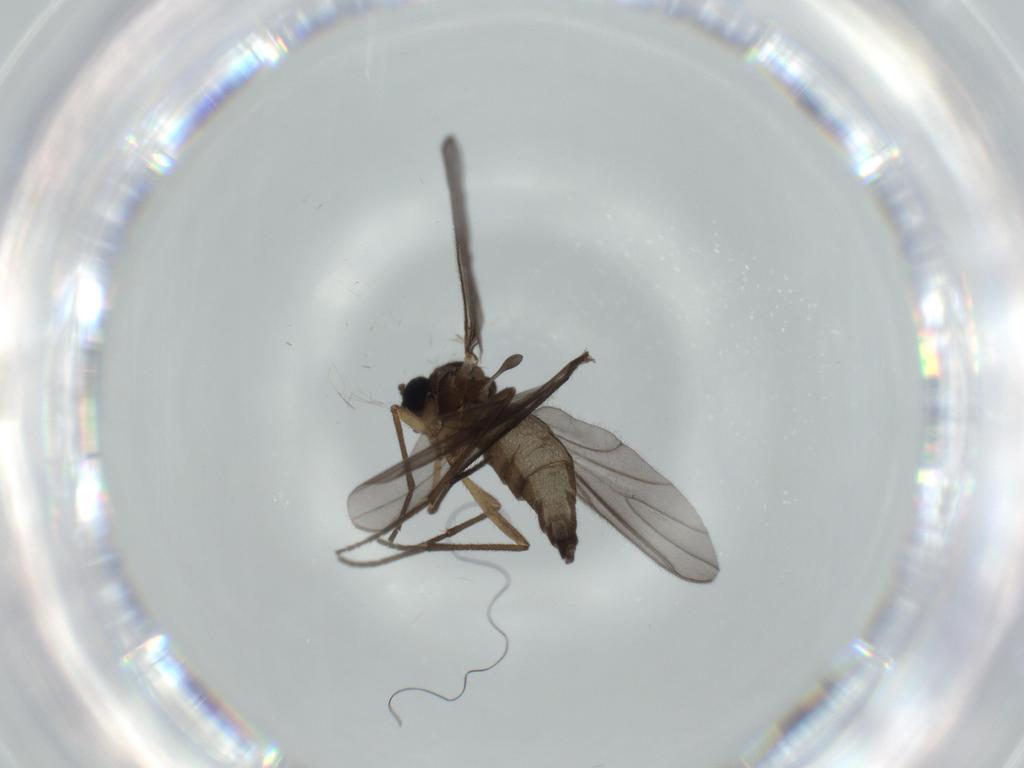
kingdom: Animalia
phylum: Arthropoda
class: Insecta
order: Diptera
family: Sciaridae
